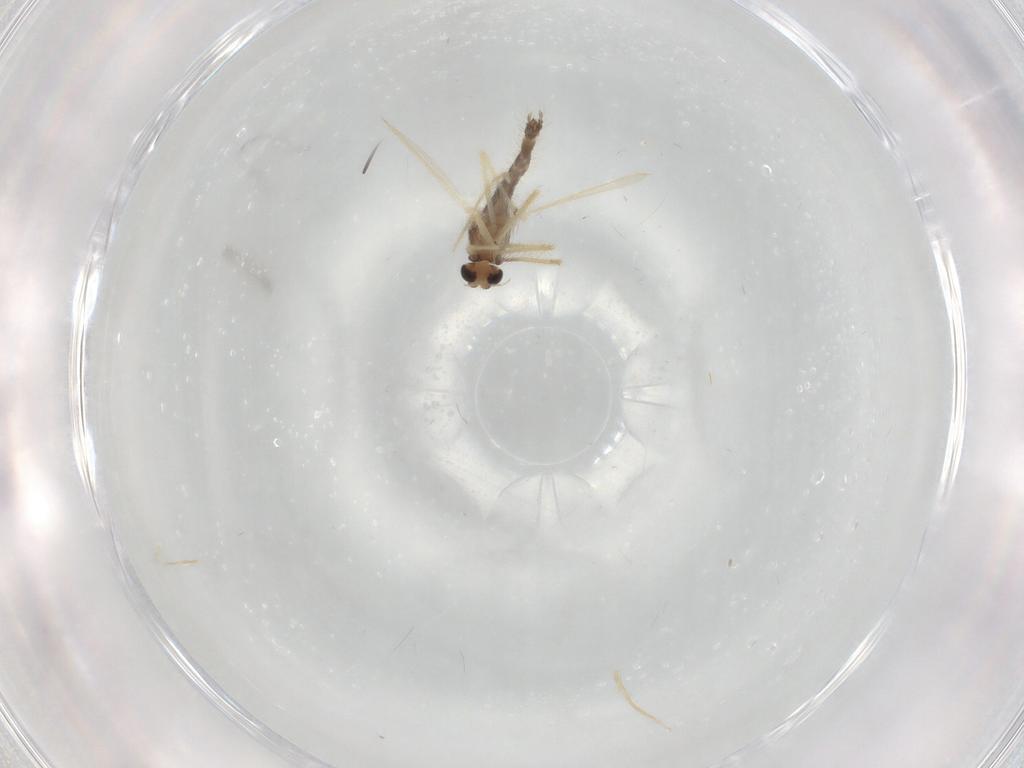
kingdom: Animalia
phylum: Arthropoda
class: Insecta
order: Diptera
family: Chironomidae
